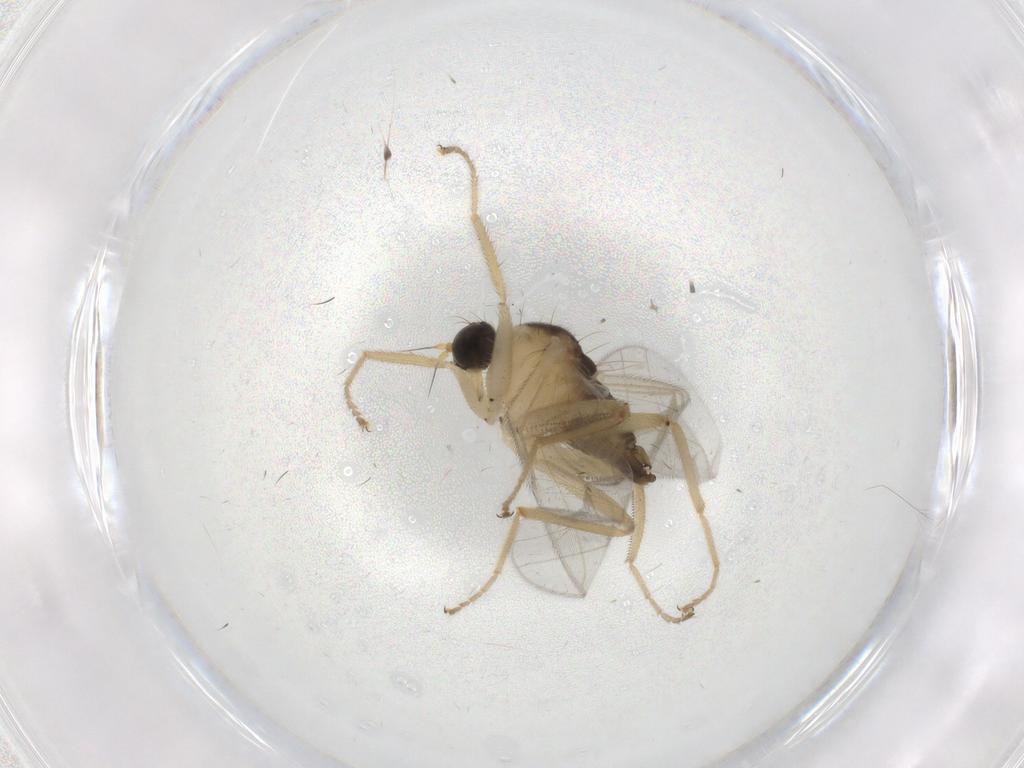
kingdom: Animalia
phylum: Arthropoda
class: Insecta
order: Diptera
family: Hybotidae
